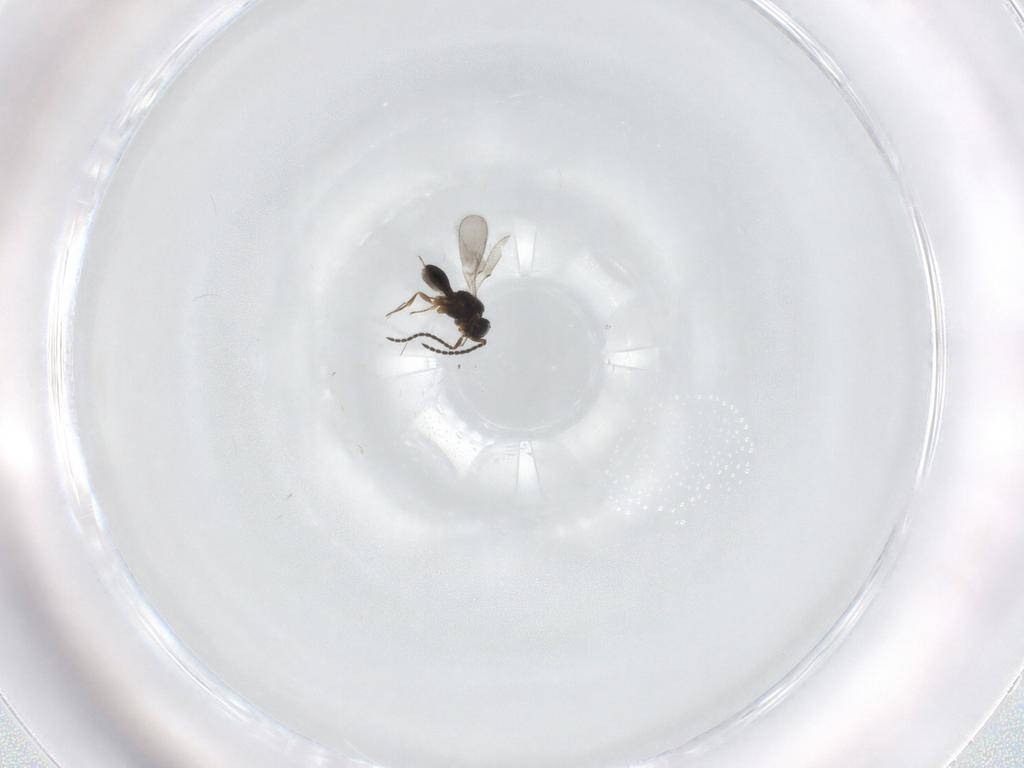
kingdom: Animalia
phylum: Arthropoda
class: Insecta
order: Hymenoptera
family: Scelionidae
